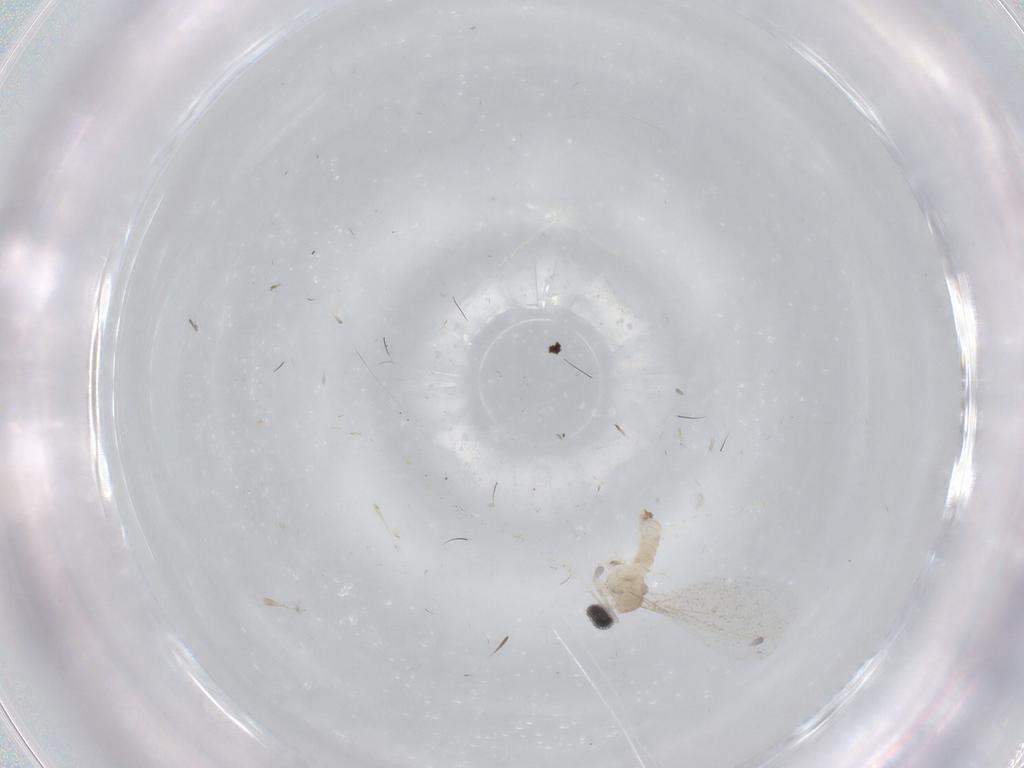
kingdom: Animalia
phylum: Arthropoda
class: Insecta
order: Diptera
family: Cecidomyiidae
